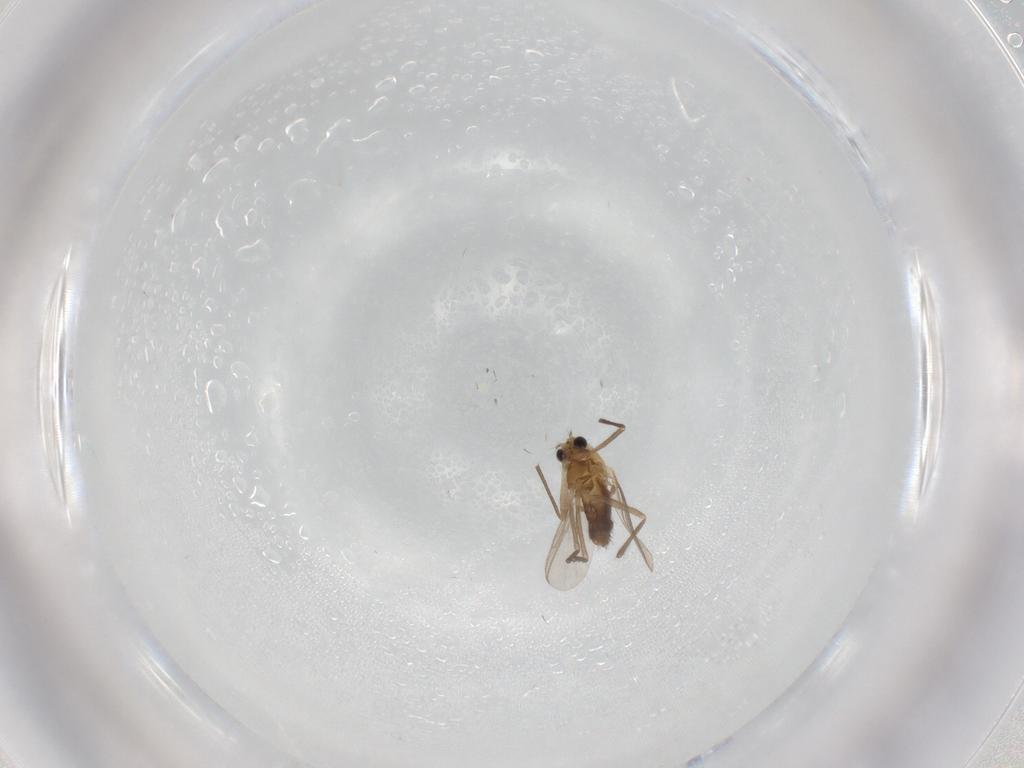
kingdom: Animalia
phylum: Arthropoda
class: Insecta
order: Diptera
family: Chironomidae
